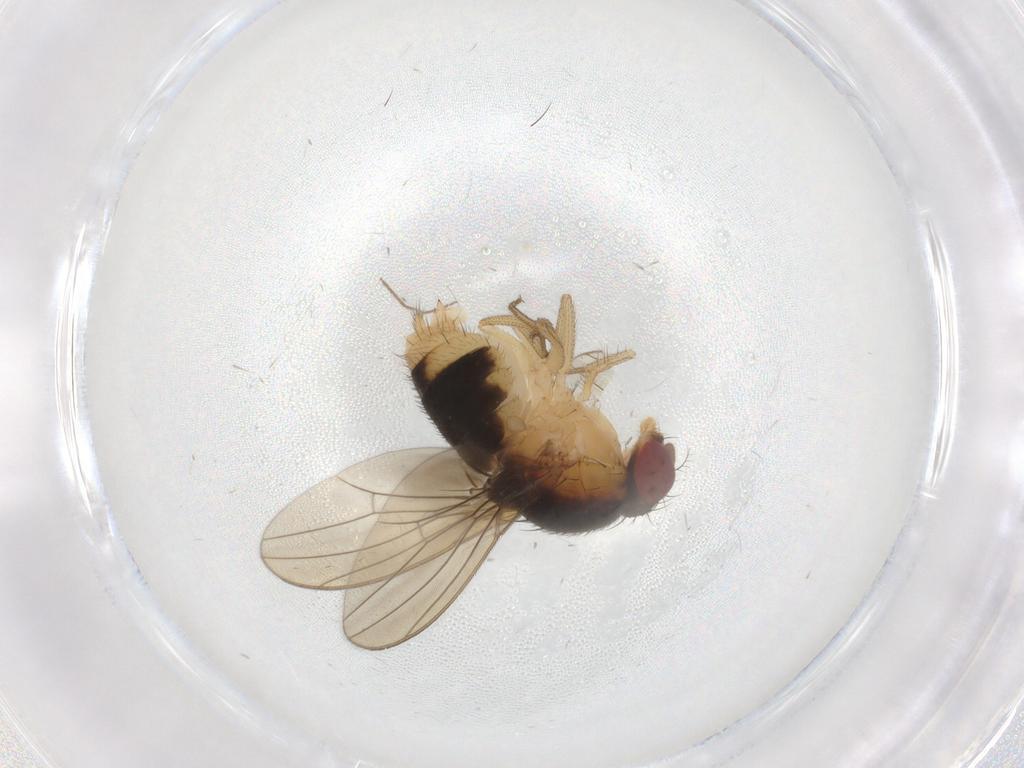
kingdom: Animalia
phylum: Arthropoda
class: Insecta
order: Diptera
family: Drosophilidae
